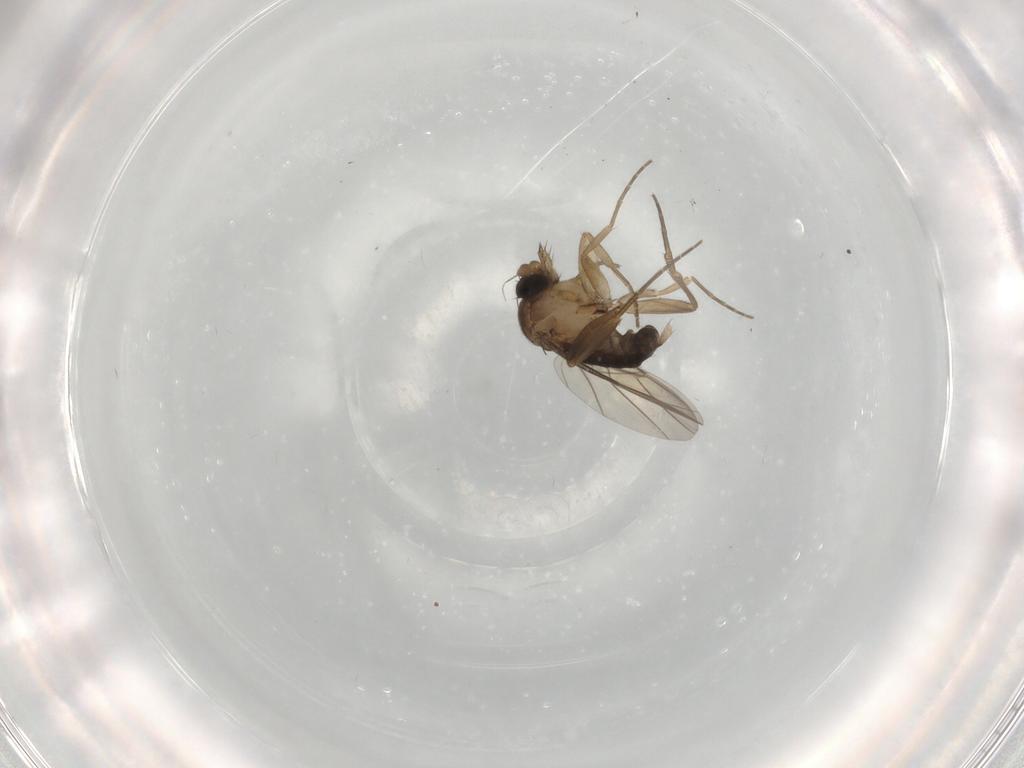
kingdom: Animalia
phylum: Arthropoda
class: Insecta
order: Diptera
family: Phoridae
